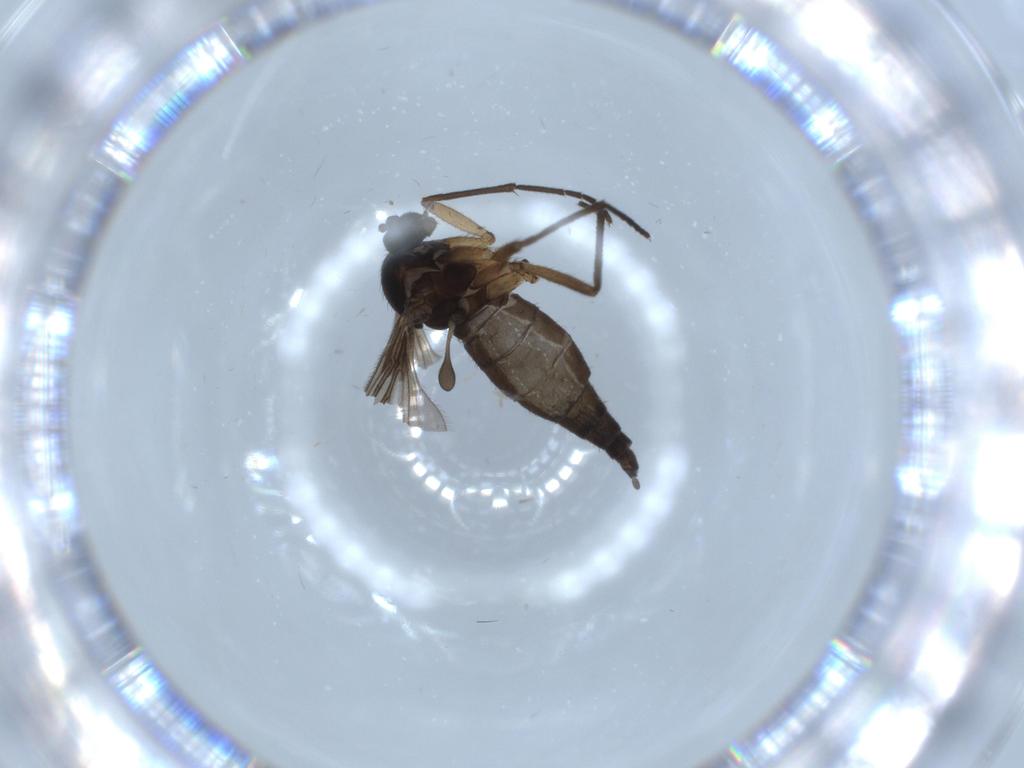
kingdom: Animalia
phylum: Arthropoda
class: Insecta
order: Diptera
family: Sciaridae
